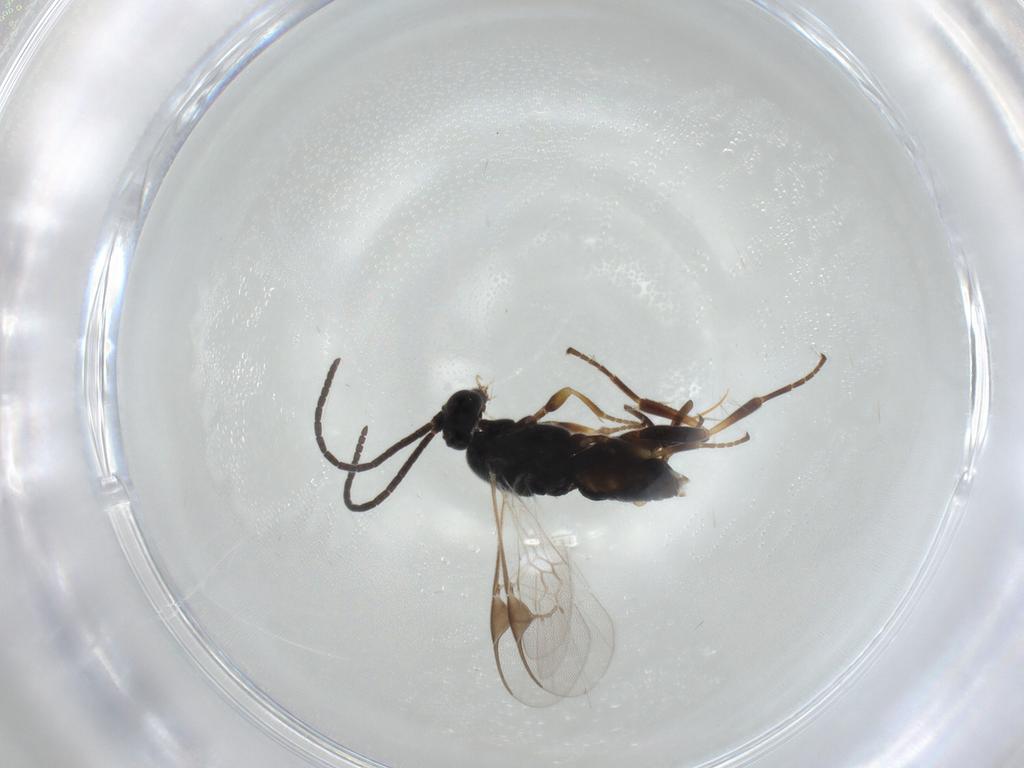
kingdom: Animalia
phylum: Arthropoda
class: Insecta
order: Hymenoptera
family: Braconidae
